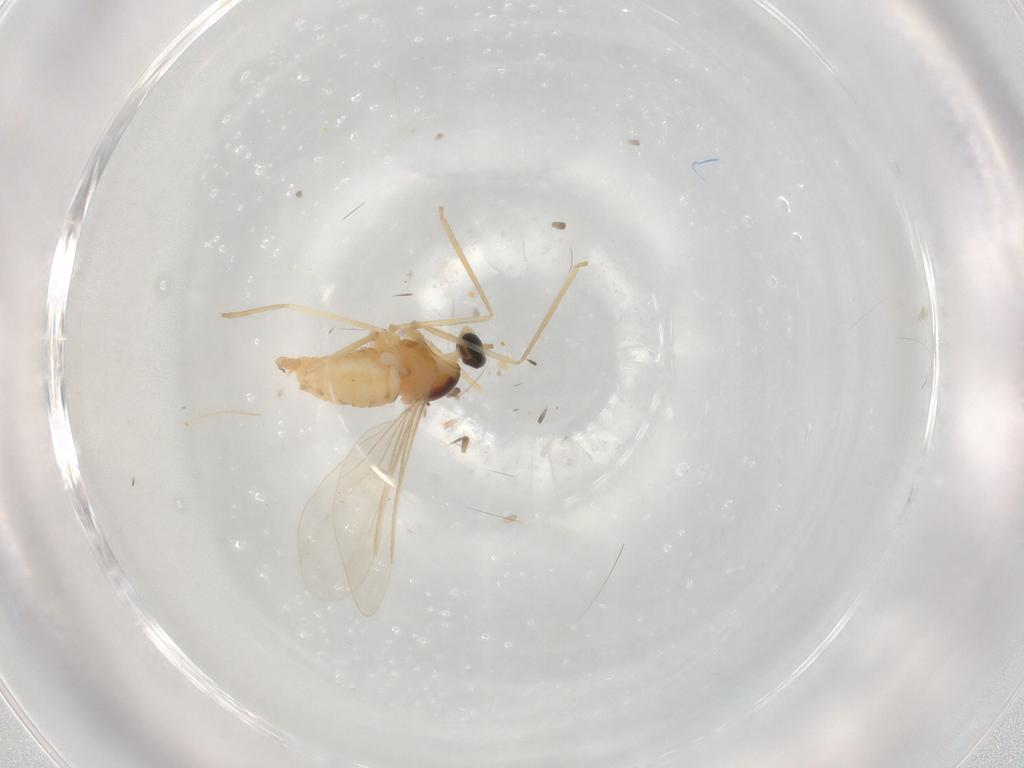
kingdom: Animalia
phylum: Arthropoda
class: Insecta
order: Diptera
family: Cecidomyiidae
